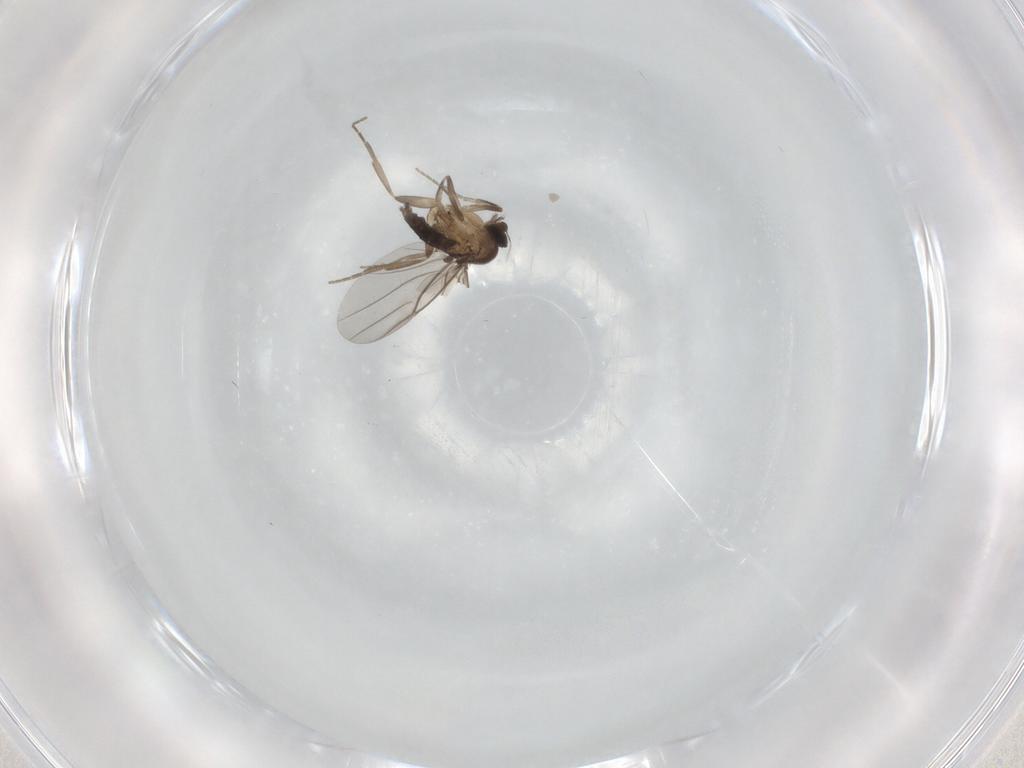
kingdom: Animalia
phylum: Arthropoda
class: Insecta
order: Diptera
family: Phoridae
